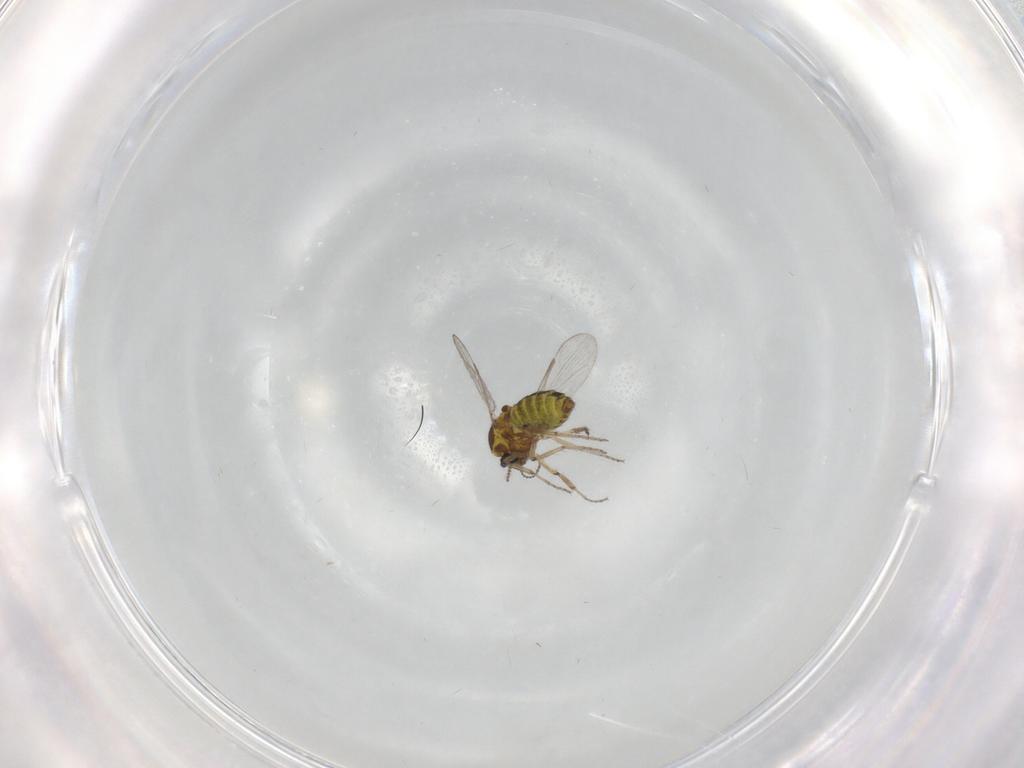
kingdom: Animalia
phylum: Arthropoda
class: Insecta
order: Diptera
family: Ceratopogonidae
